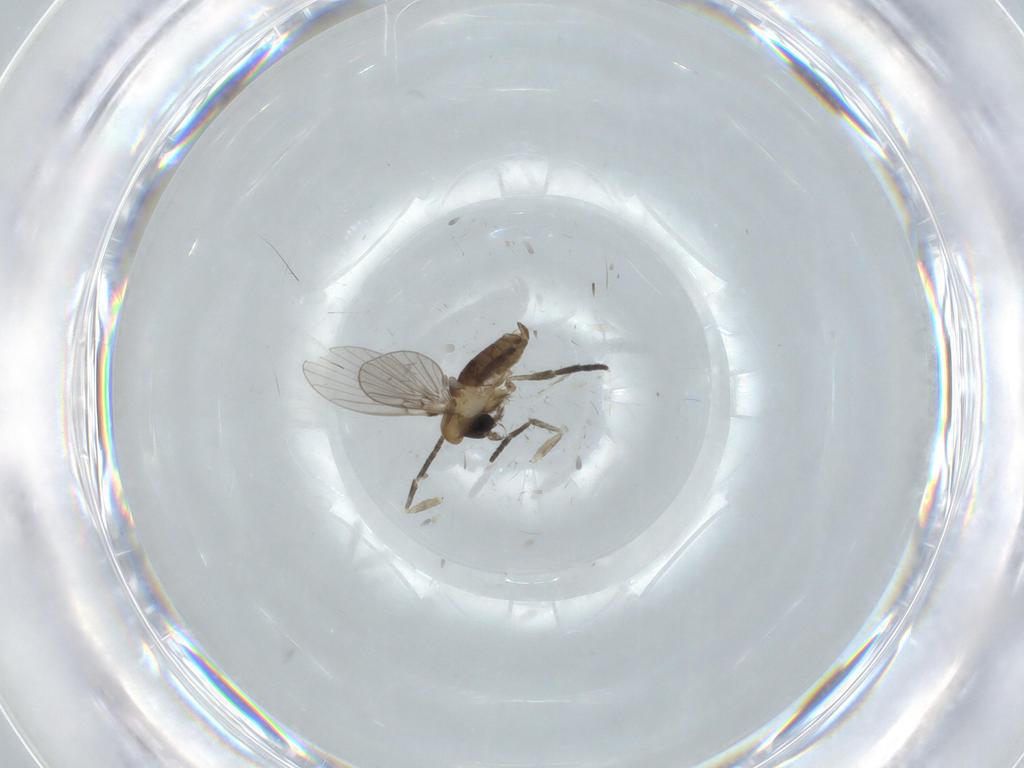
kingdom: Animalia
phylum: Arthropoda
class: Insecta
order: Diptera
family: Psychodidae
